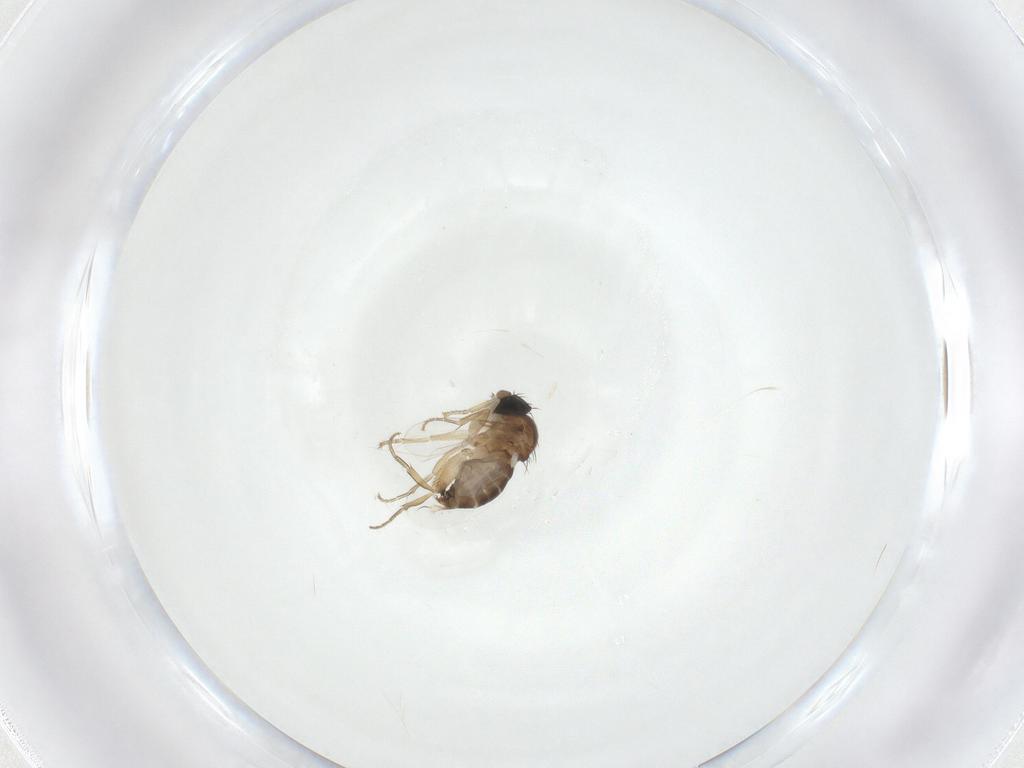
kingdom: Animalia
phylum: Arthropoda
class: Insecta
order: Diptera
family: Phoridae
